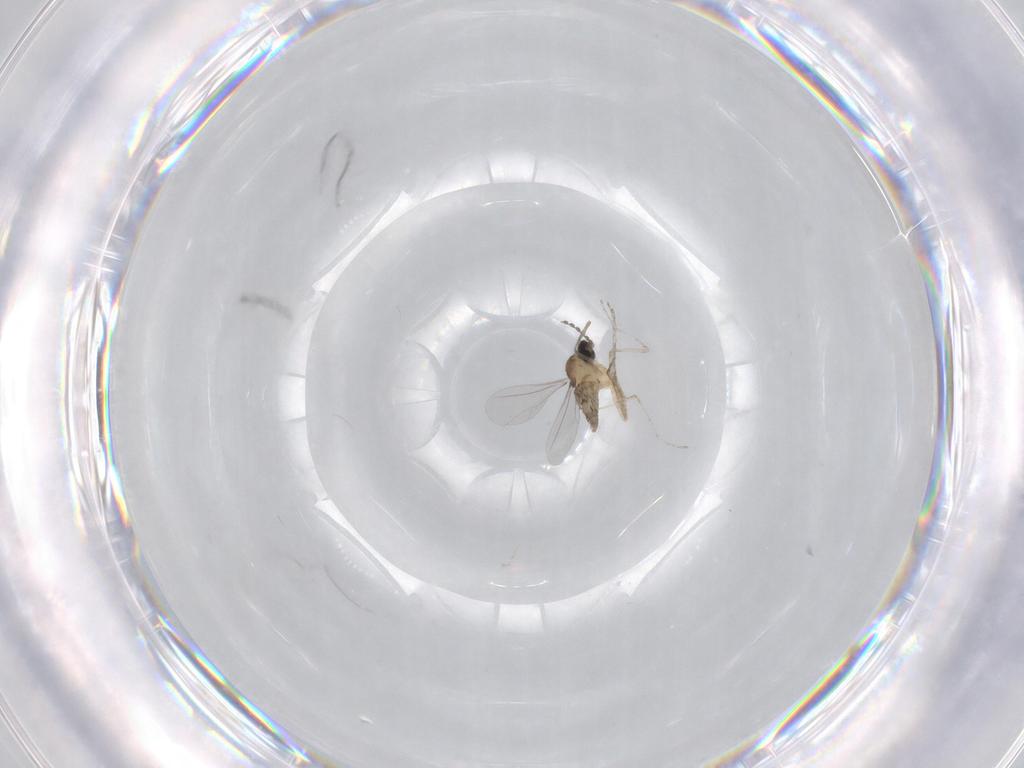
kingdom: Animalia
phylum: Arthropoda
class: Insecta
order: Diptera
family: Cecidomyiidae
